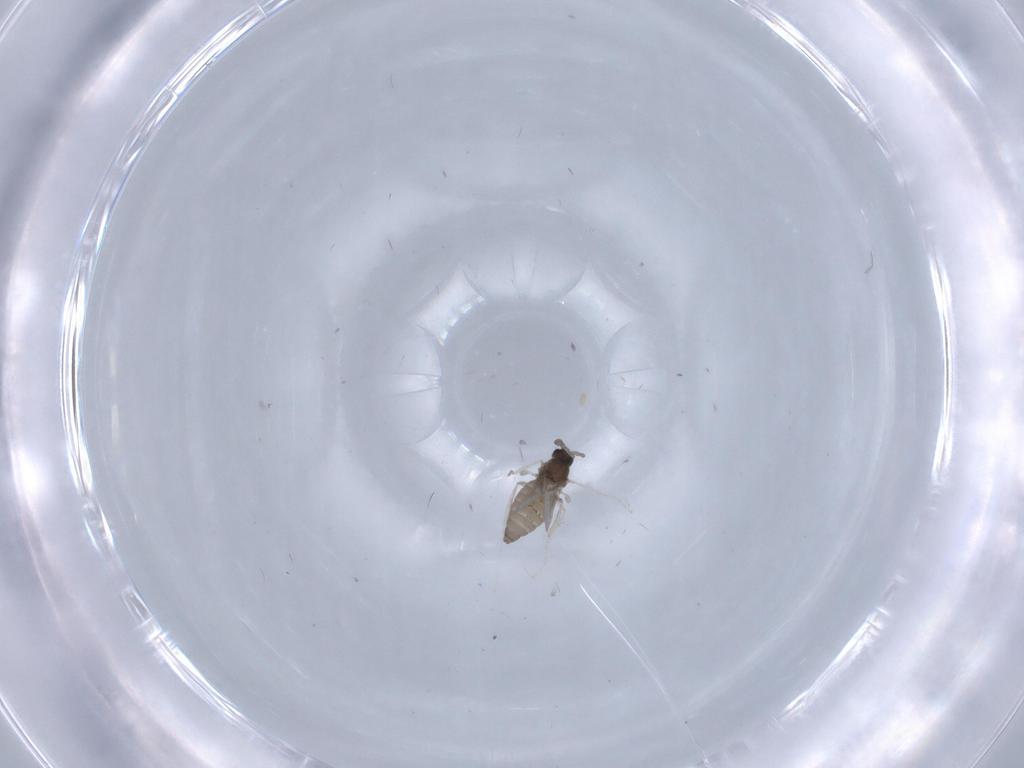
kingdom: Animalia
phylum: Arthropoda
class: Insecta
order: Diptera
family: Cecidomyiidae
